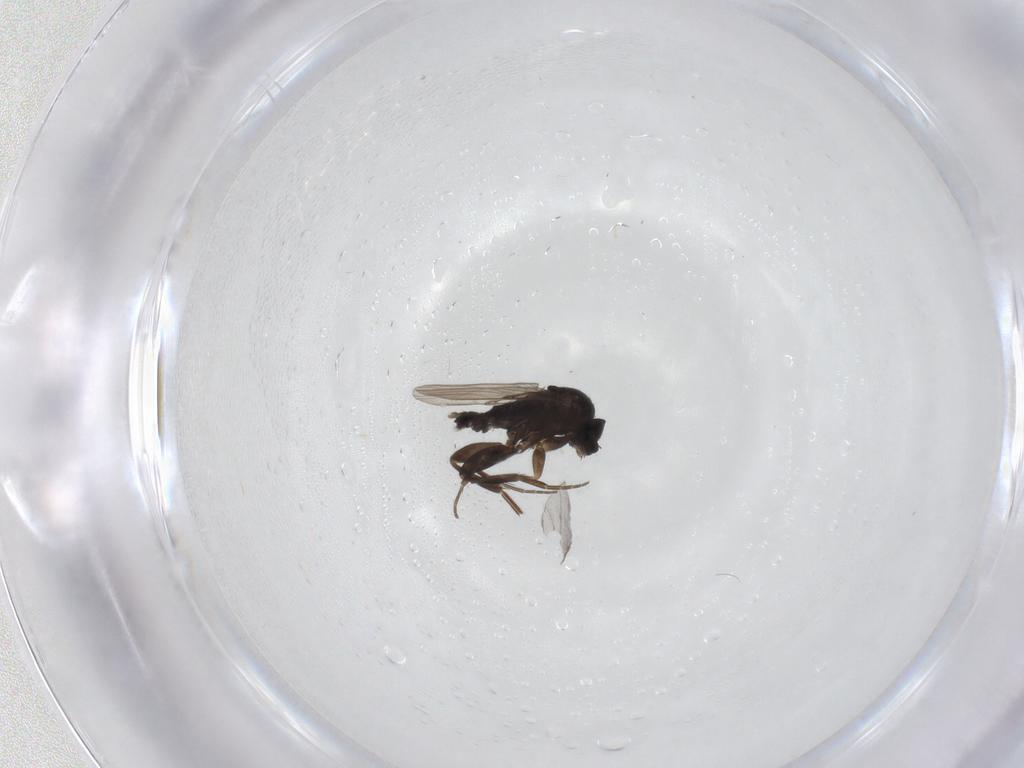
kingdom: Animalia
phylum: Arthropoda
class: Insecta
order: Diptera
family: Phoridae
